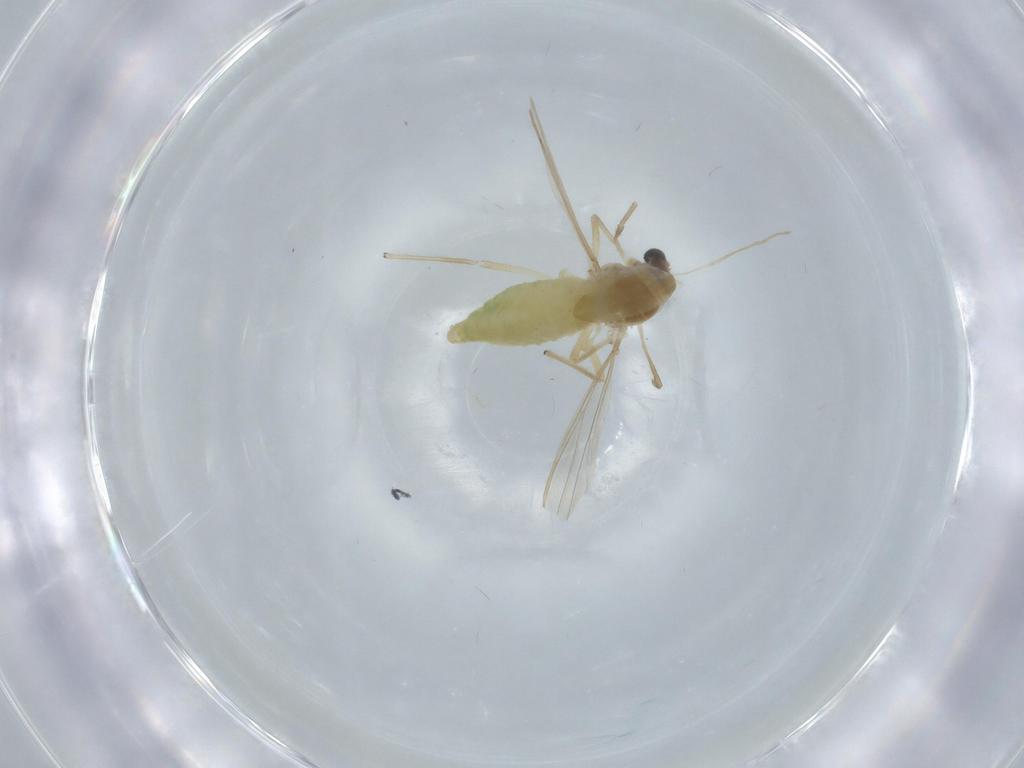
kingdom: Animalia
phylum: Arthropoda
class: Insecta
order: Diptera
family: Chironomidae
